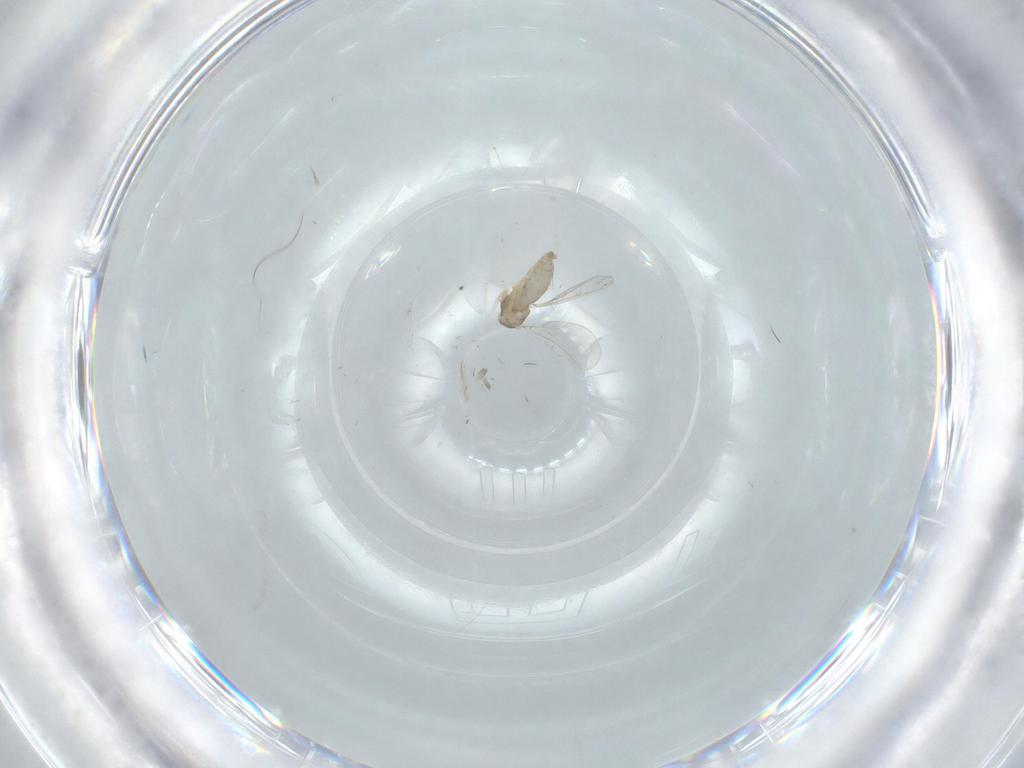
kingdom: Animalia
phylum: Arthropoda
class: Insecta
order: Diptera
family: Cecidomyiidae
